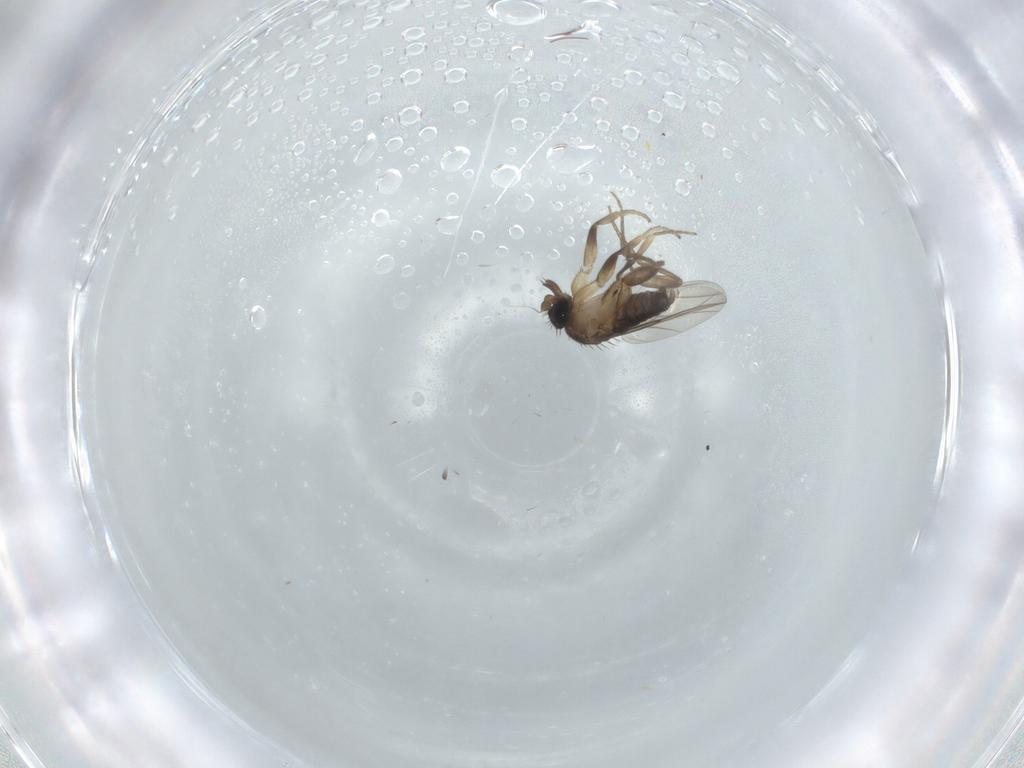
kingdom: Animalia
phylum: Arthropoda
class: Insecta
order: Diptera
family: Phoridae
